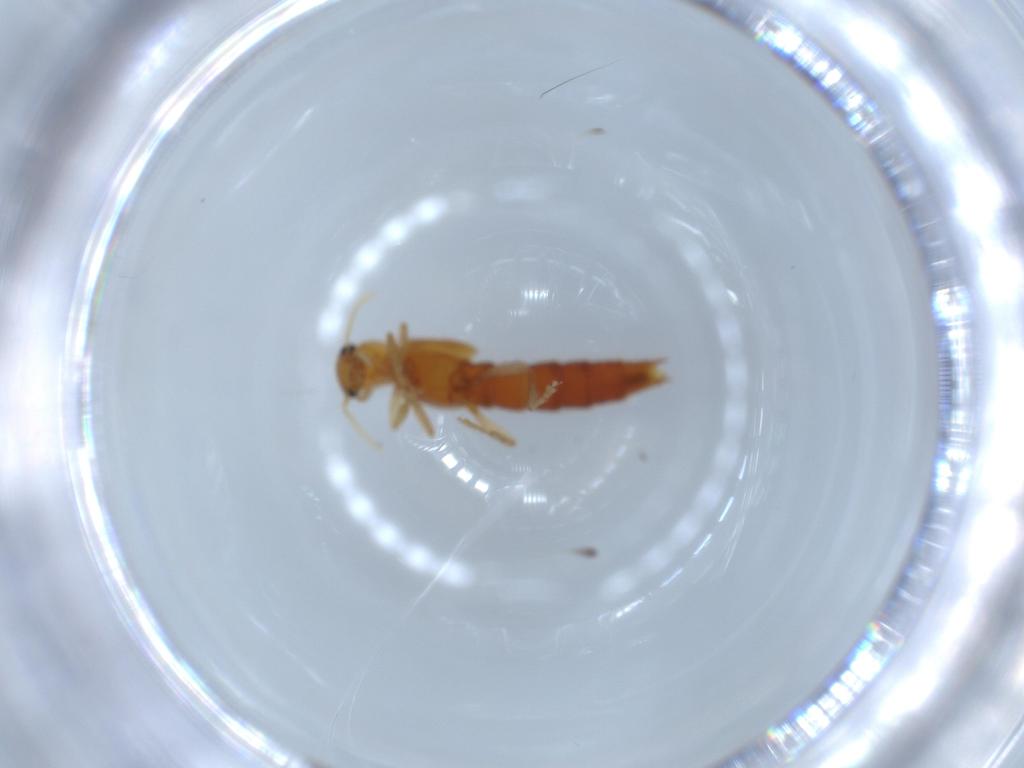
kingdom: Animalia
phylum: Arthropoda
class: Insecta
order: Coleoptera
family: Staphylinidae
